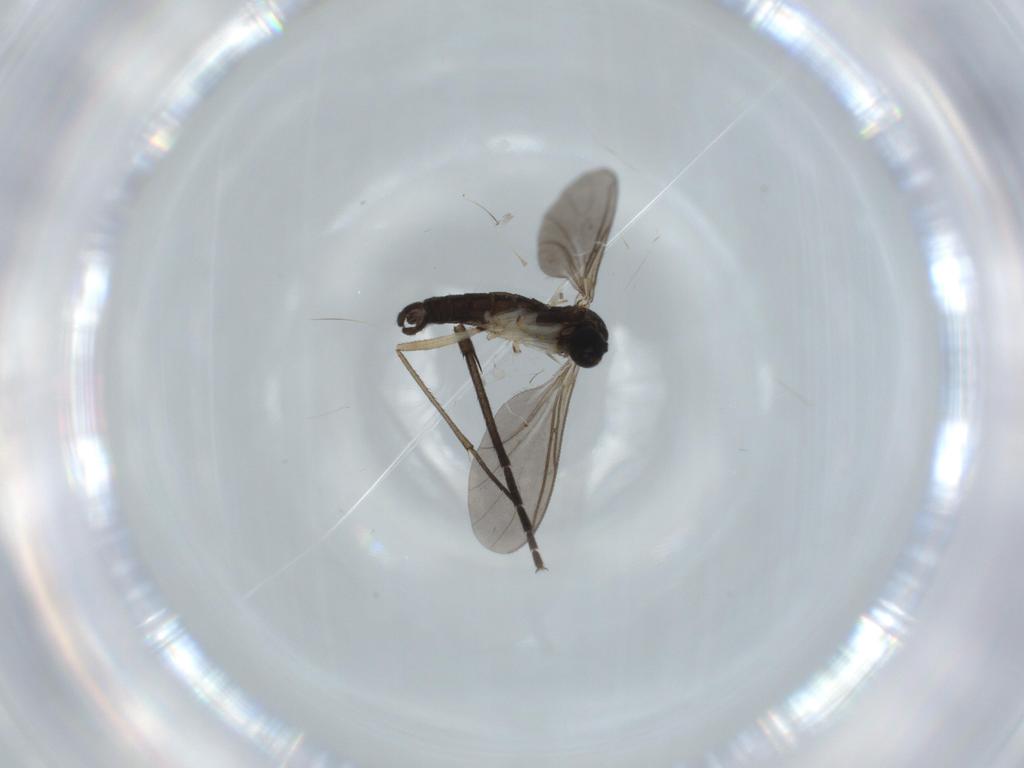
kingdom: Animalia
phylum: Arthropoda
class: Insecta
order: Diptera
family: Sciaridae
